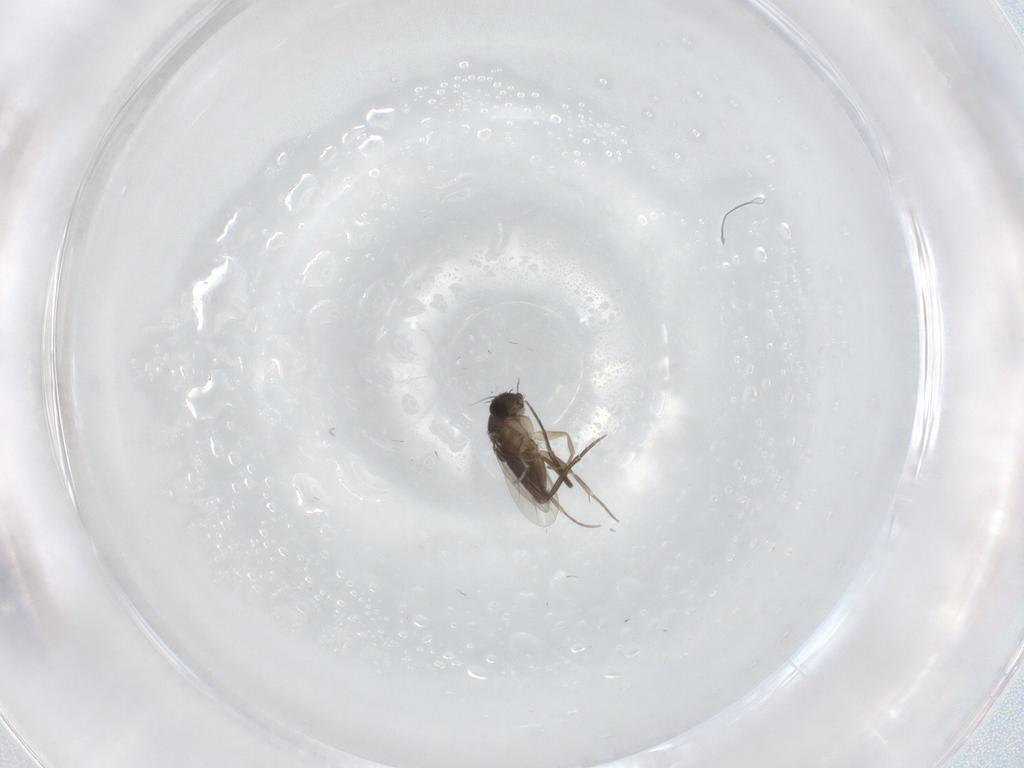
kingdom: Animalia
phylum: Arthropoda
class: Insecta
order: Diptera
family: Phoridae
